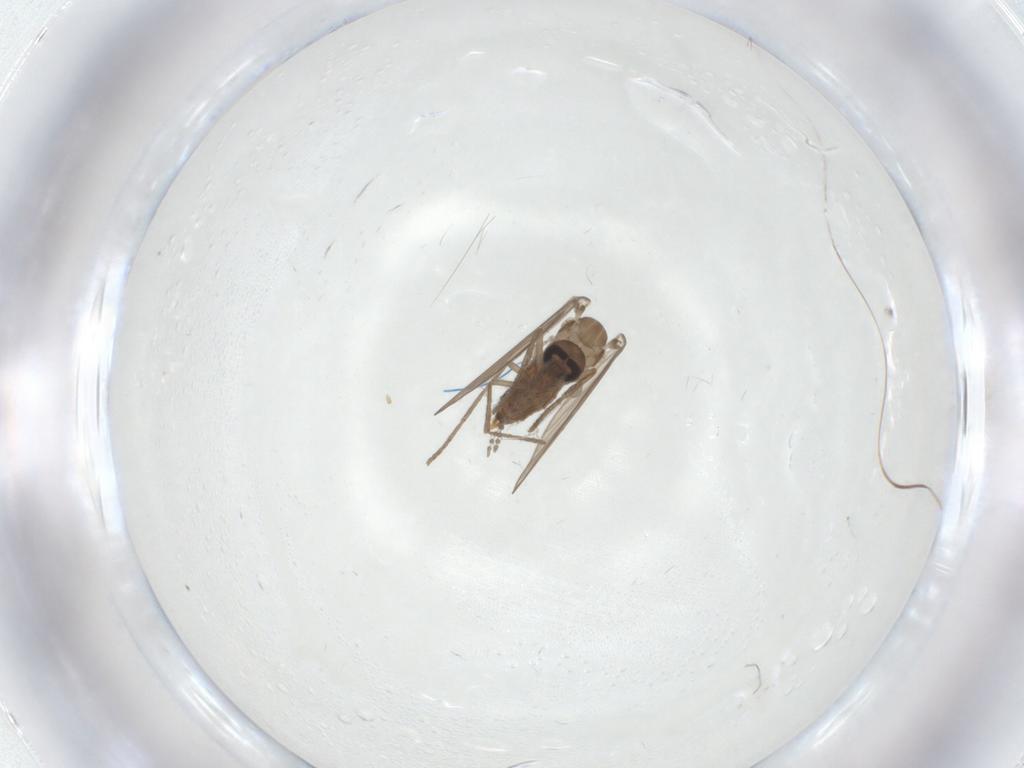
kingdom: Animalia
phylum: Arthropoda
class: Insecta
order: Diptera
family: Psychodidae
